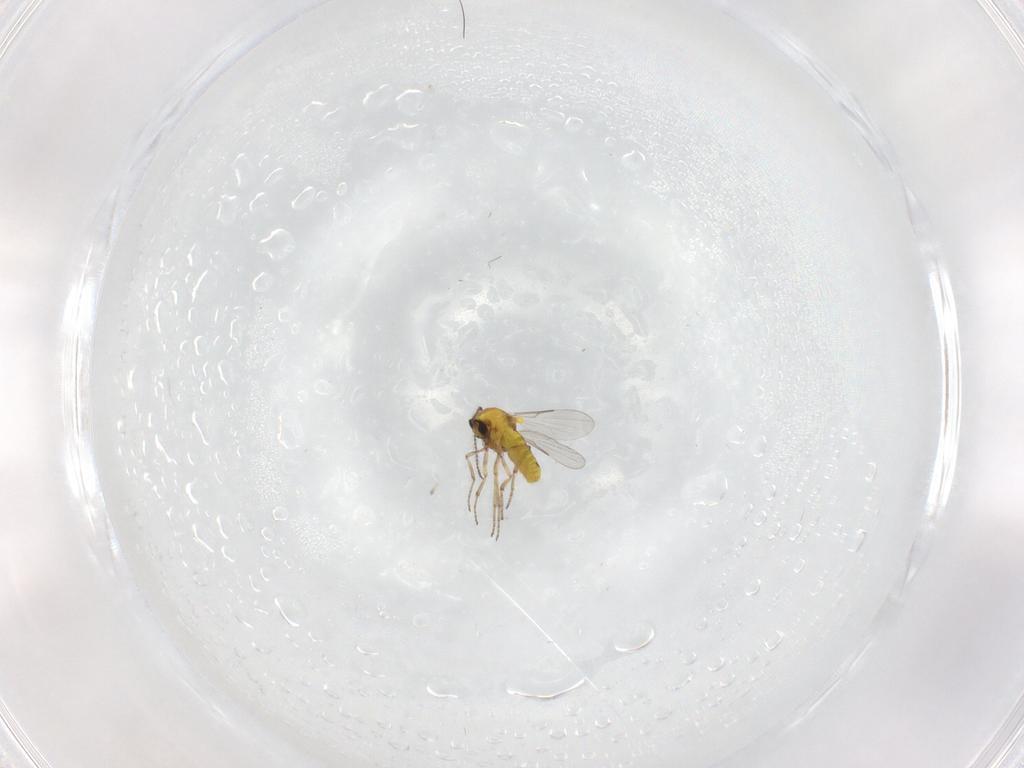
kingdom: Animalia
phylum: Arthropoda
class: Insecta
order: Diptera
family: Ceratopogonidae
